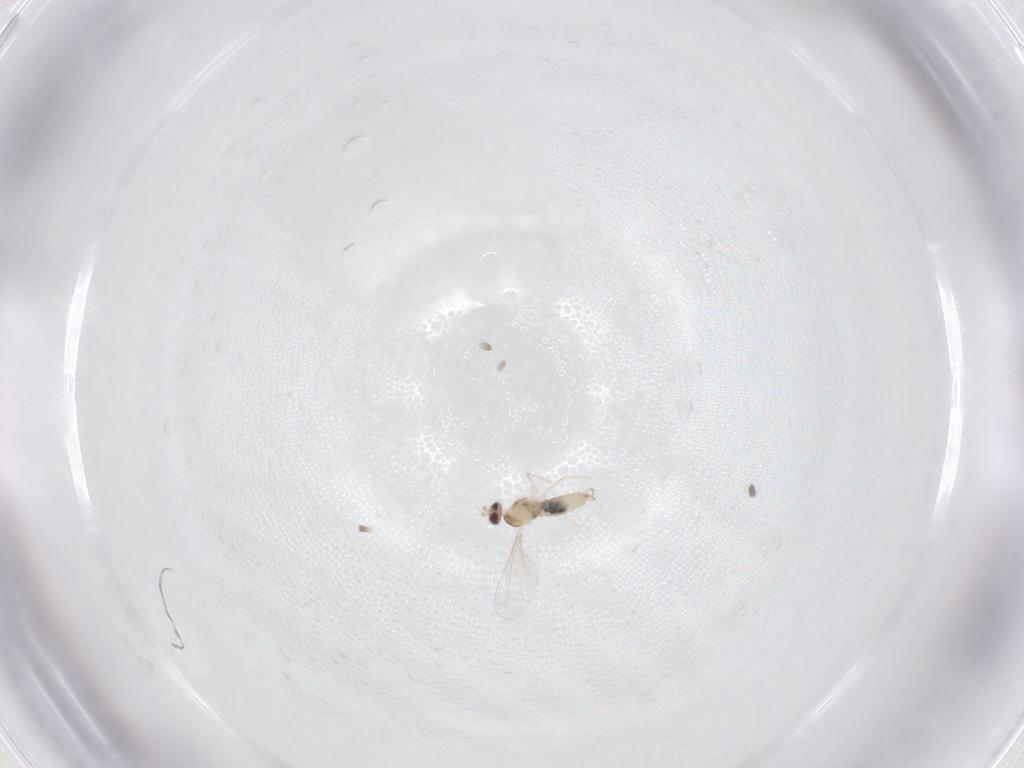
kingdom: Animalia
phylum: Arthropoda
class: Insecta
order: Diptera
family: Cecidomyiidae
